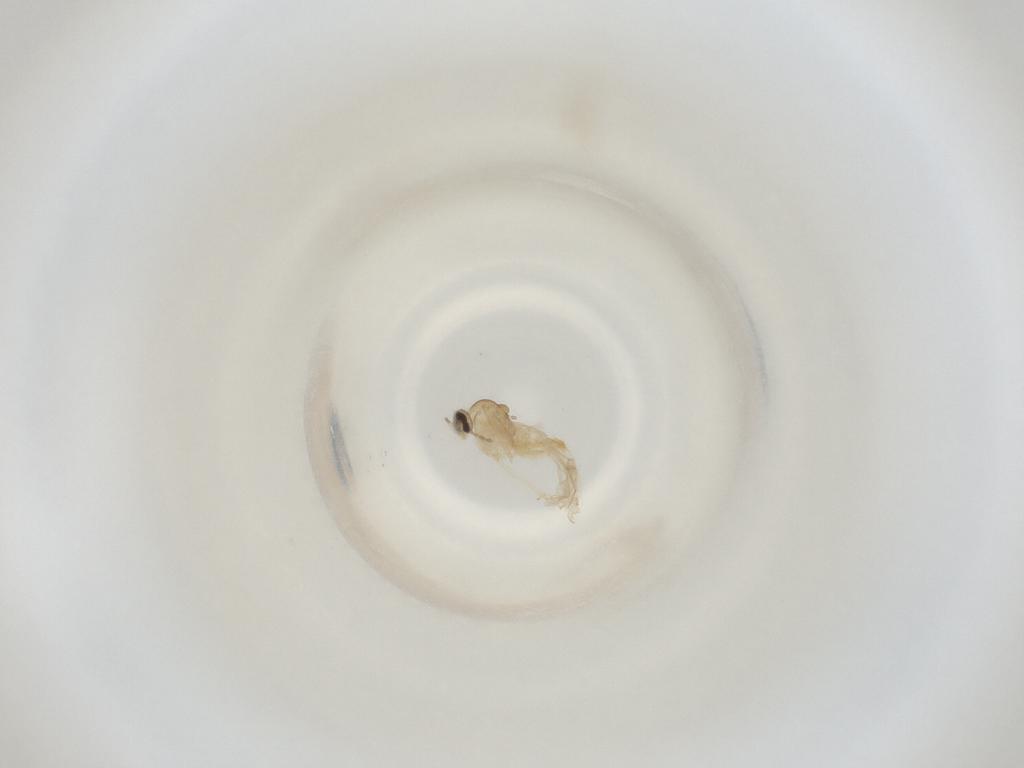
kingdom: Animalia
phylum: Arthropoda
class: Insecta
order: Diptera
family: Cecidomyiidae
